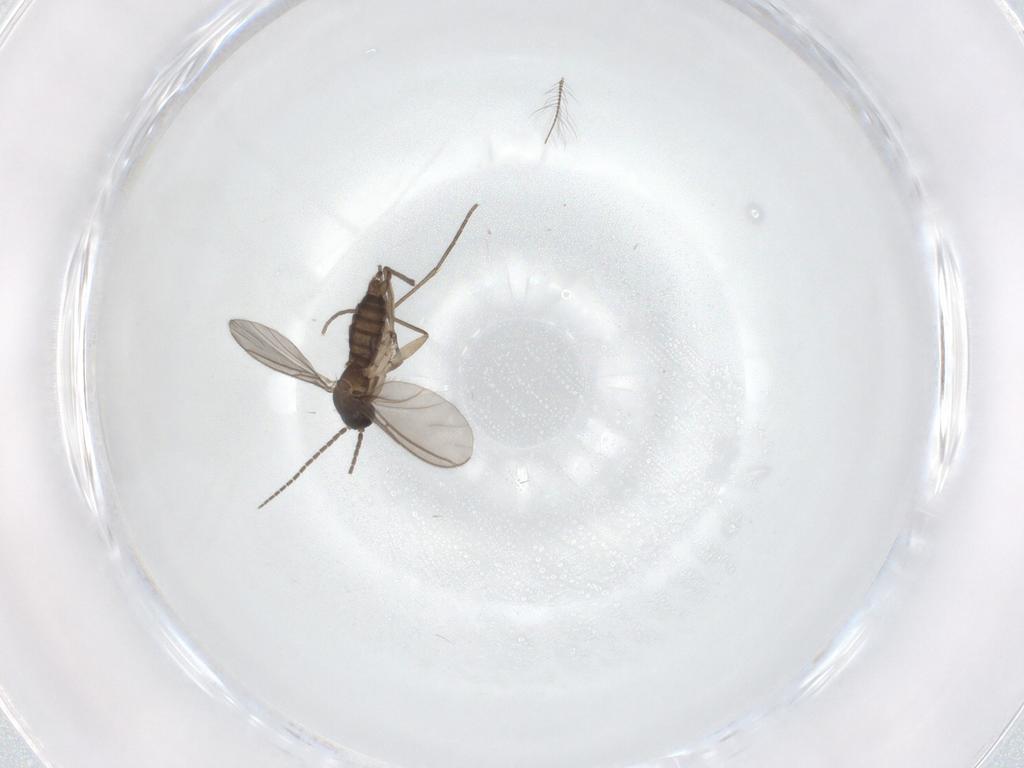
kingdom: Animalia
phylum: Arthropoda
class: Insecta
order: Diptera
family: Sciaridae
